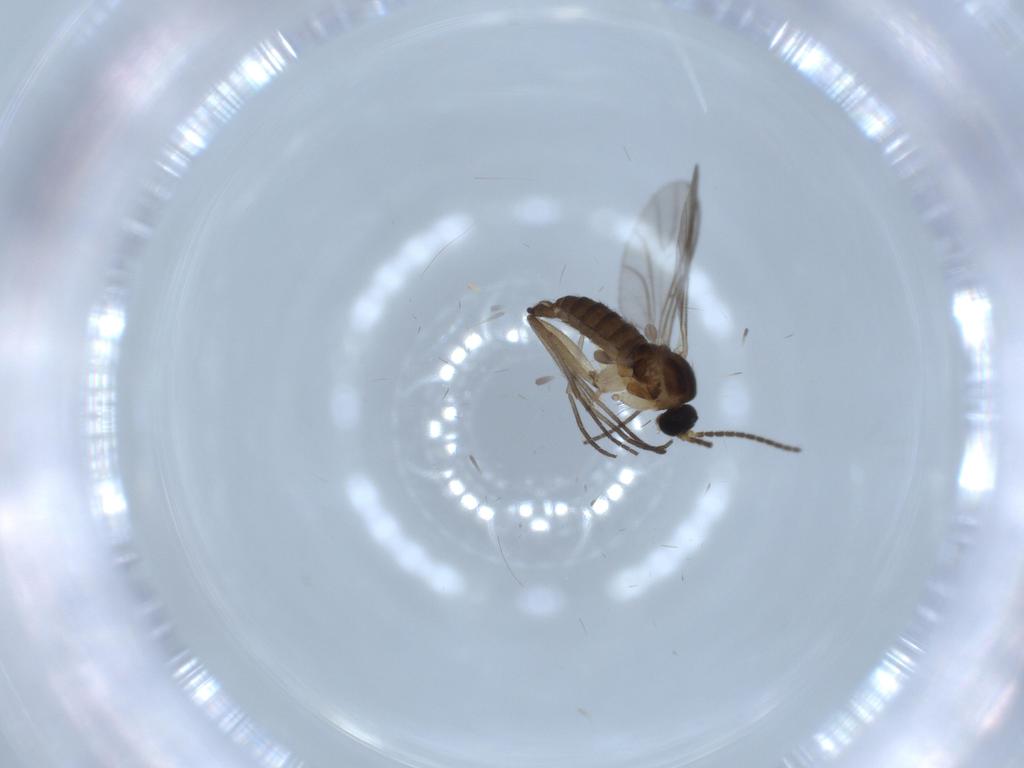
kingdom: Animalia
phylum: Arthropoda
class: Insecta
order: Diptera
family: Sciaridae
